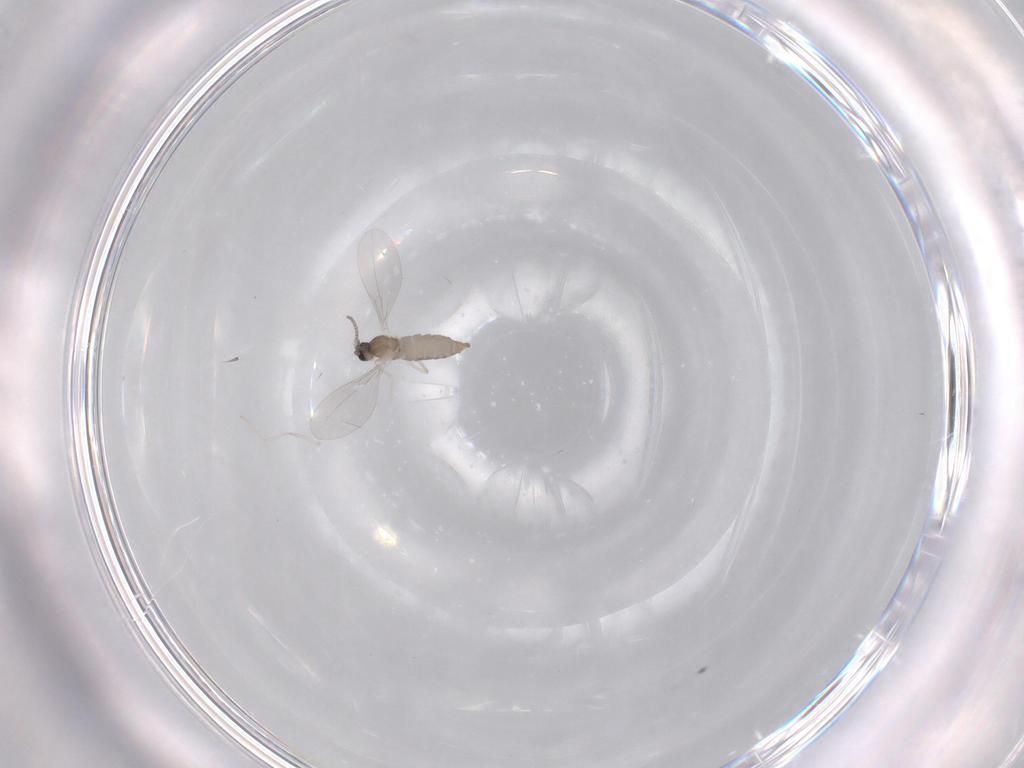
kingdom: Animalia
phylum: Arthropoda
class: Insecta
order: Diptera
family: Cecidomyiidae
